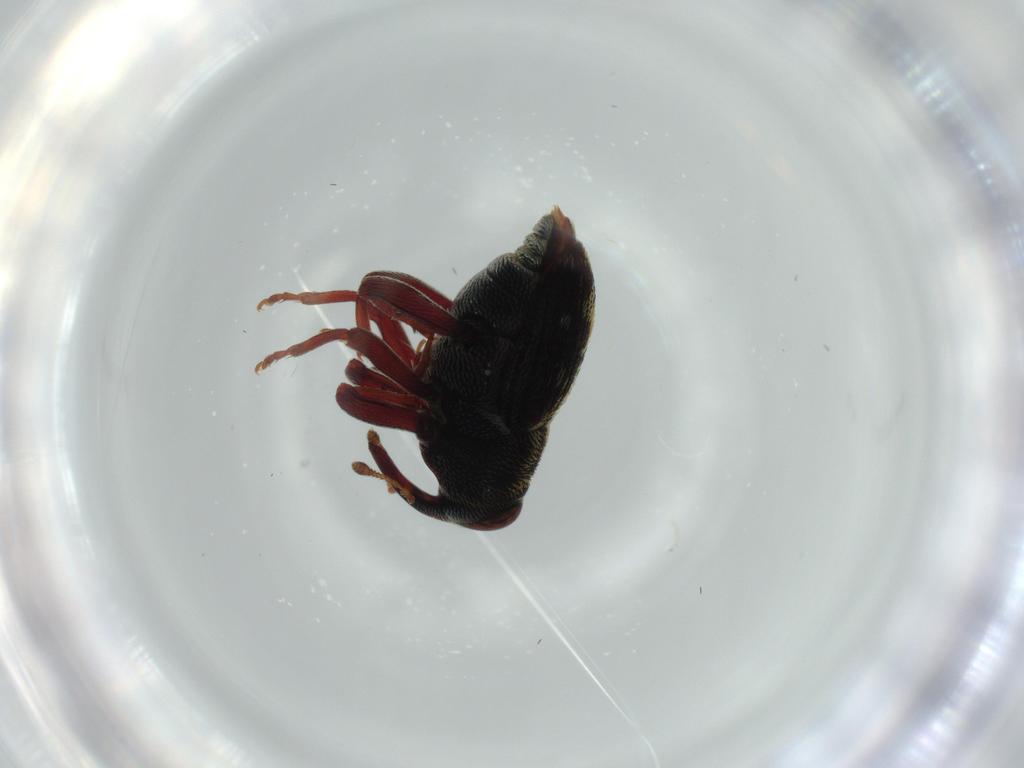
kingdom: Animalia
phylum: Arthropoda
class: Insecta
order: Coleoptera
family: Curculionidae
